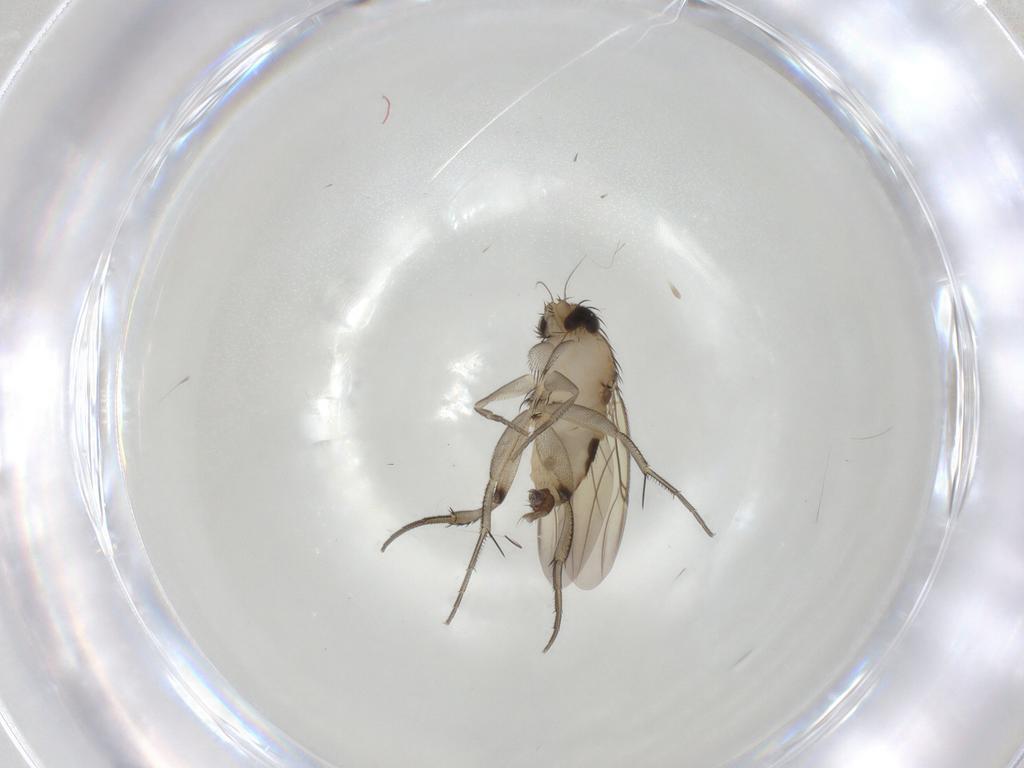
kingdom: Animalia
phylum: Arthropoda
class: Insecta
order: Diptera
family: Phoridae
